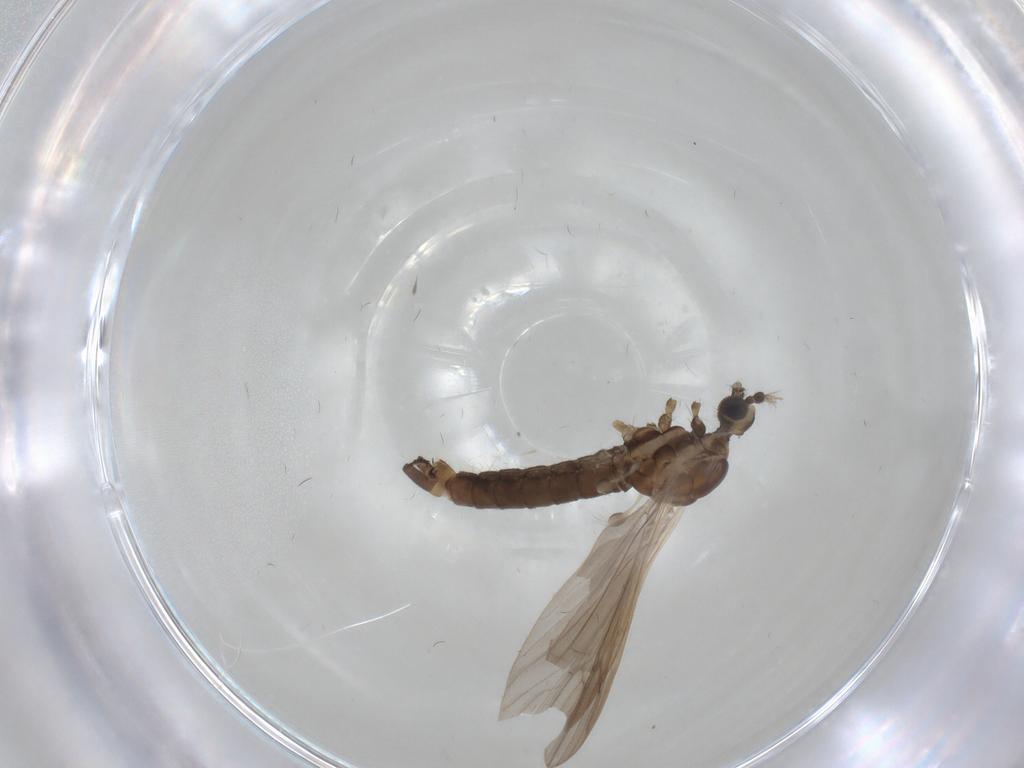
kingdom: Animalia
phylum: Arthropoda
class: Insecta
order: Diptera
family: Limoniidae
